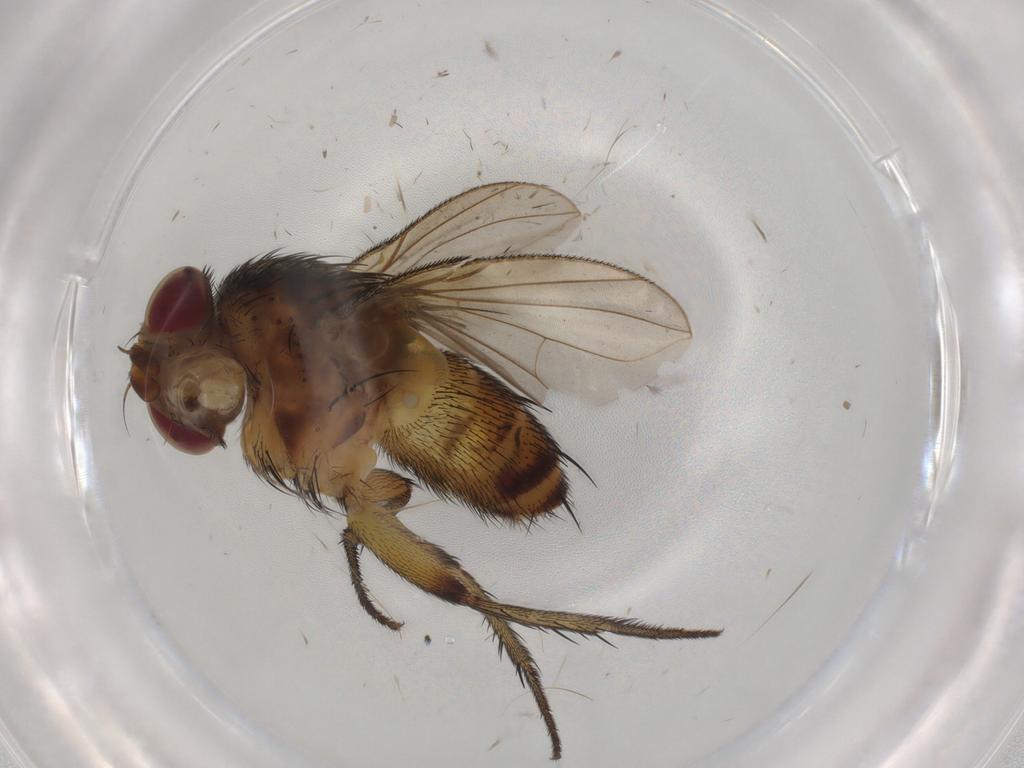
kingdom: Animalia
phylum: Arthropoda
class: Insecta
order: Diptera
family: Tachinidae
